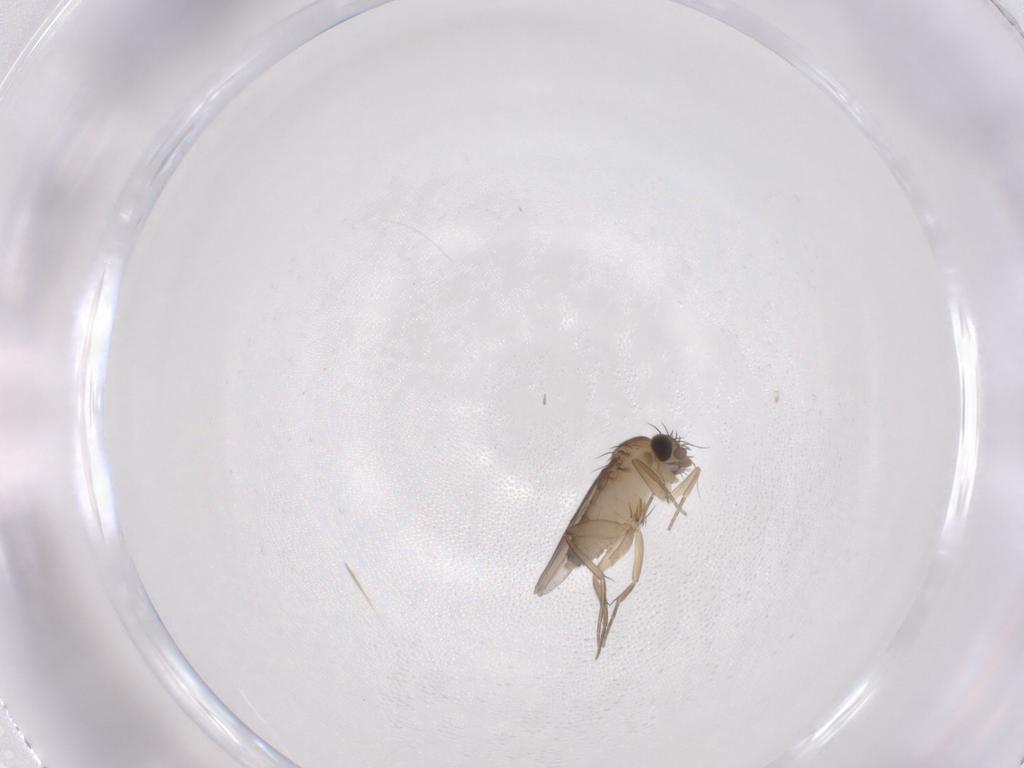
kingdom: Animalia
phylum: Arthropoda
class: Insecta
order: Diptera
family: Phoridae
